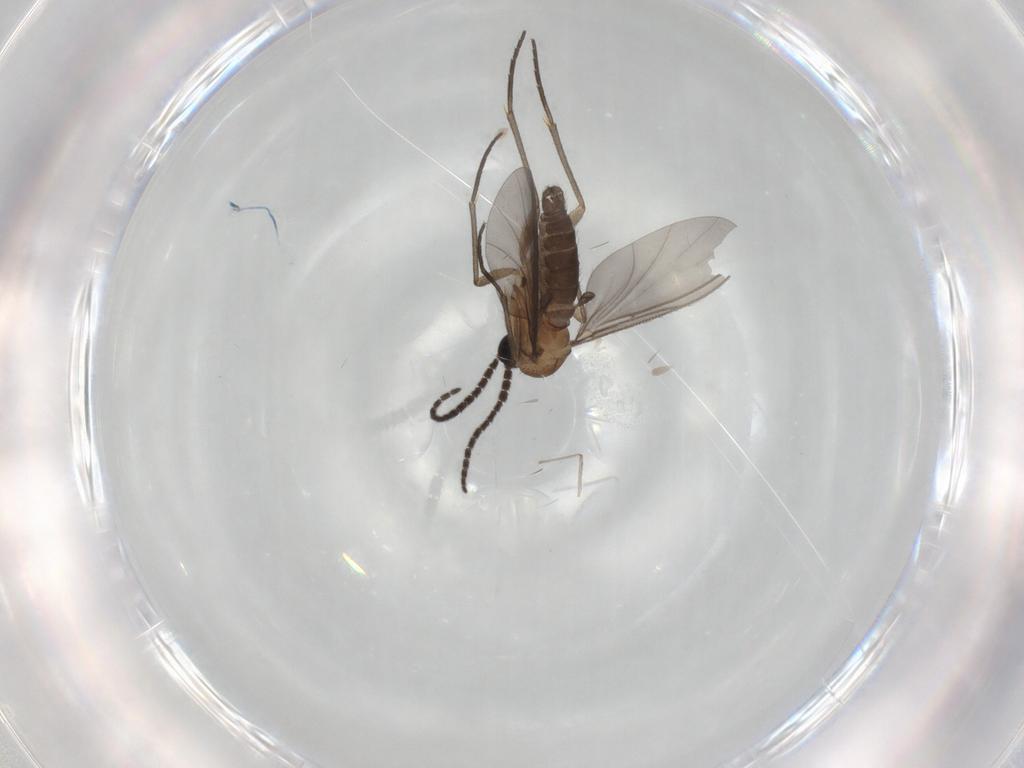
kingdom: Animalia
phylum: Arthropoda
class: Insecta
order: Diptera
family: Sciaridae
